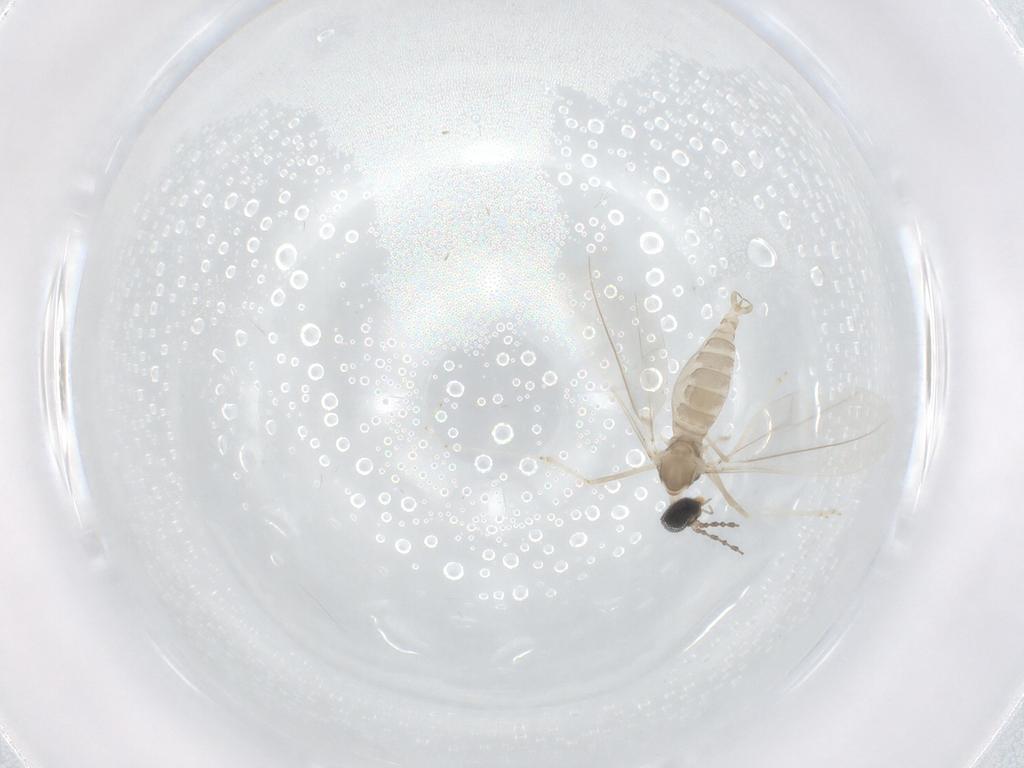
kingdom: Animalia
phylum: Arthropoda
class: Insecta
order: Diptera
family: Cecidomyiidae
